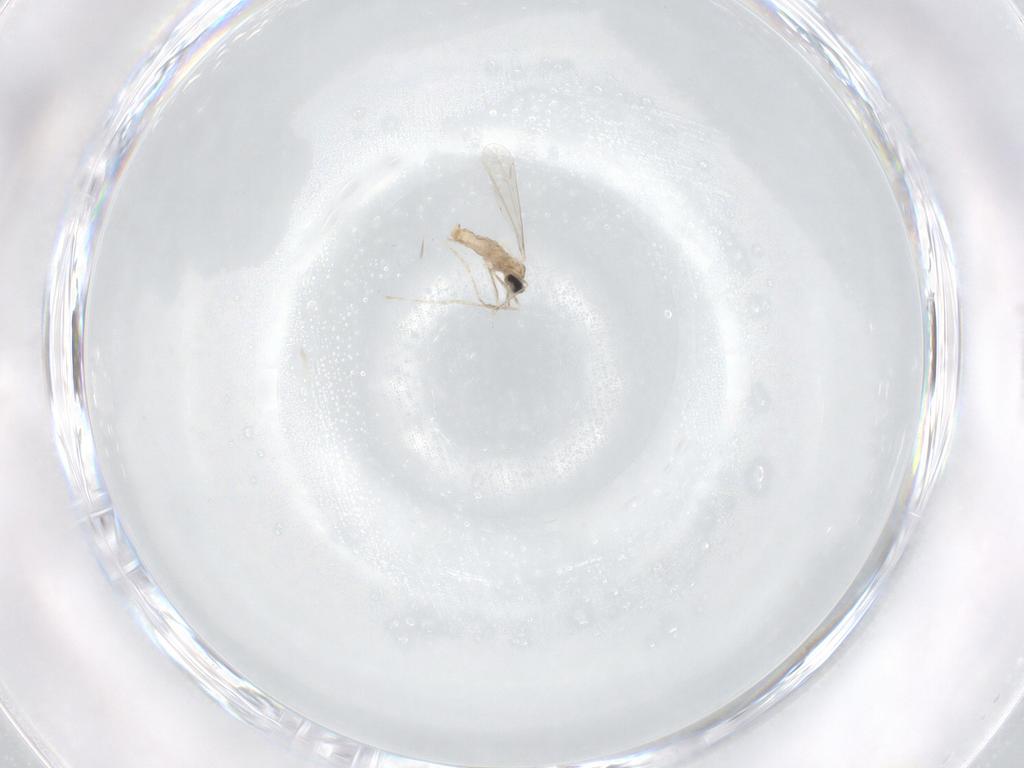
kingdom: Animalia
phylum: Arthropoda
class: Insecta
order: Diptera
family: Cecidomyiidae
